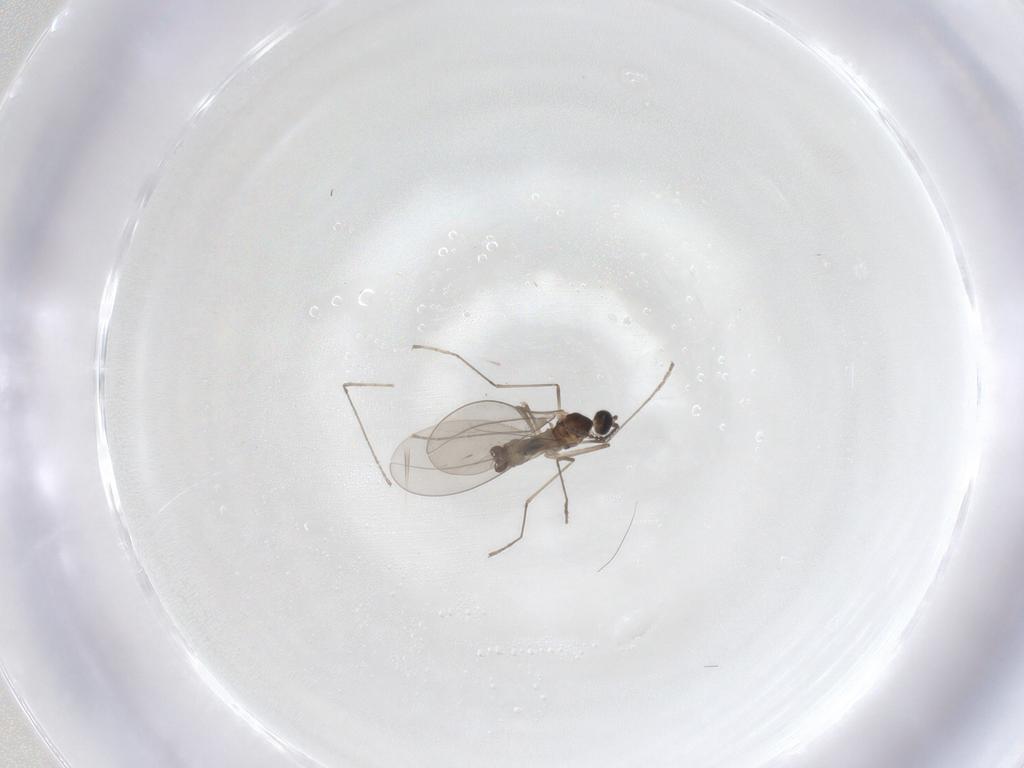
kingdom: Animalia
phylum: Arthropoda
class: Insecta
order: Diptera
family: Cecidomyiidae
